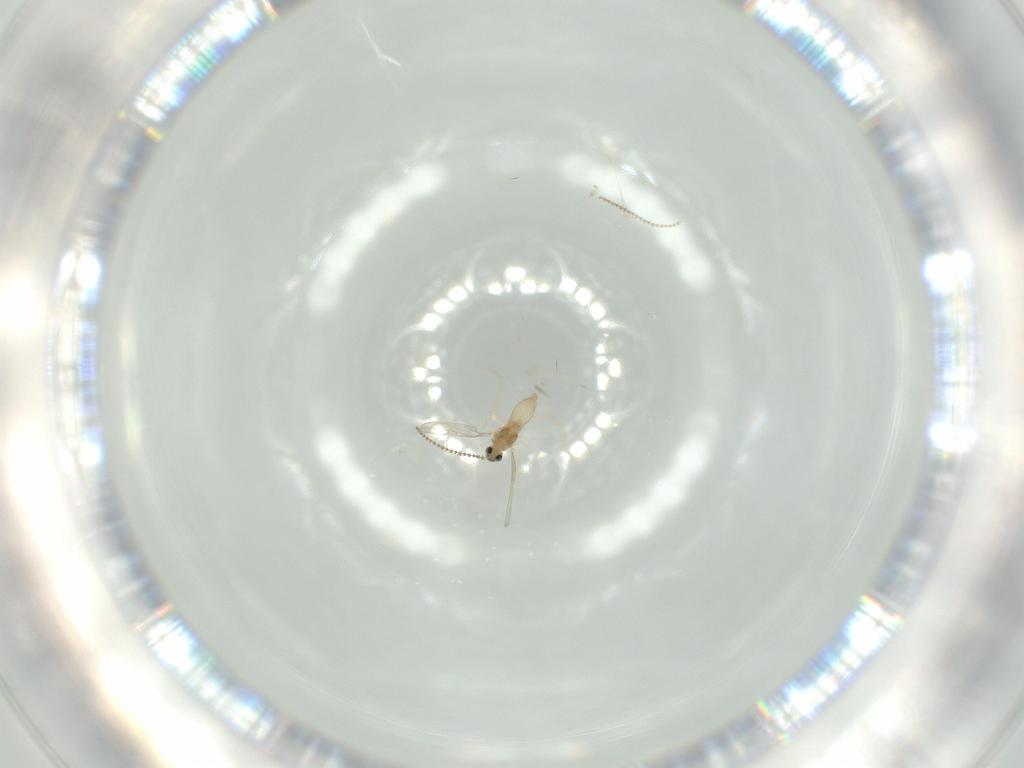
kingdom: Animalia
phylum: Arthropoda
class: Insecta
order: Diptera
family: Cecidomyiidae
